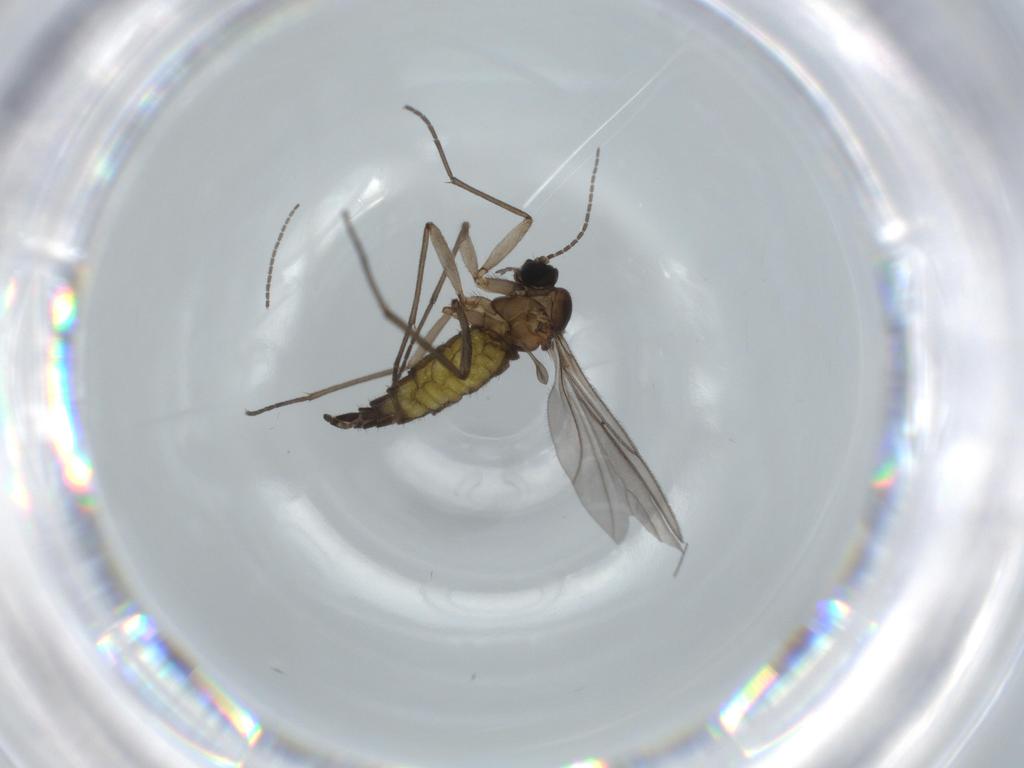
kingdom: Animalia
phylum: Arthropoda
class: Insecta
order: Diptera
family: Sciaridae
